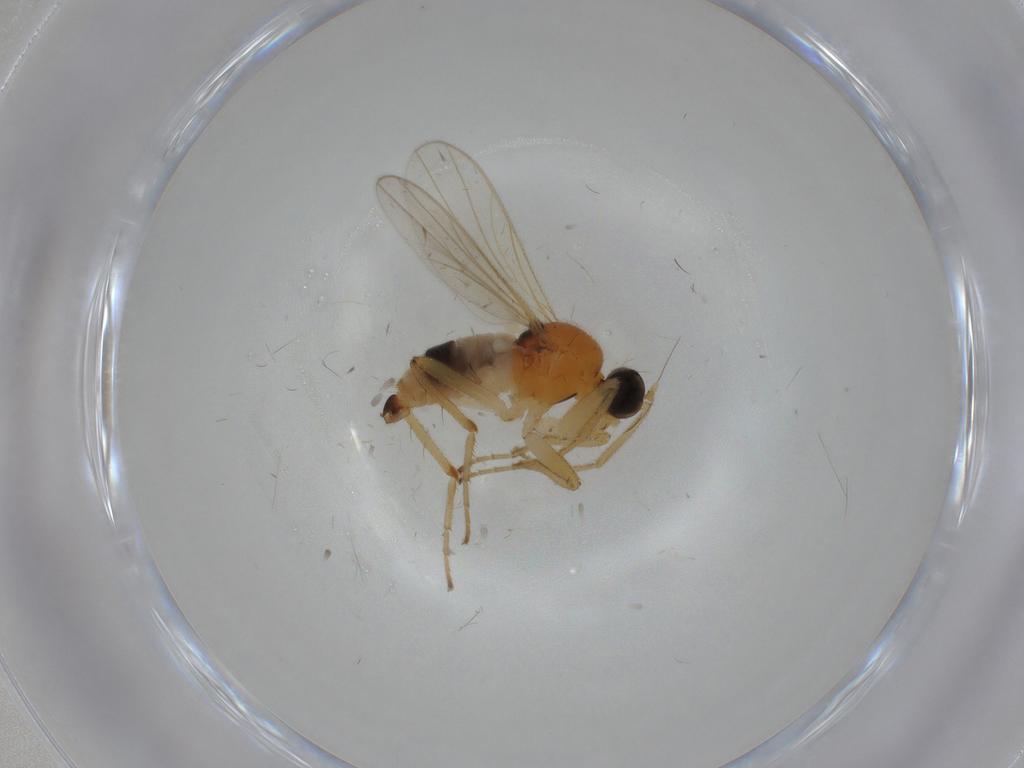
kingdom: Animalia
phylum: Arthropoda
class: Insecta
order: Diptera
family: Hybotidae
